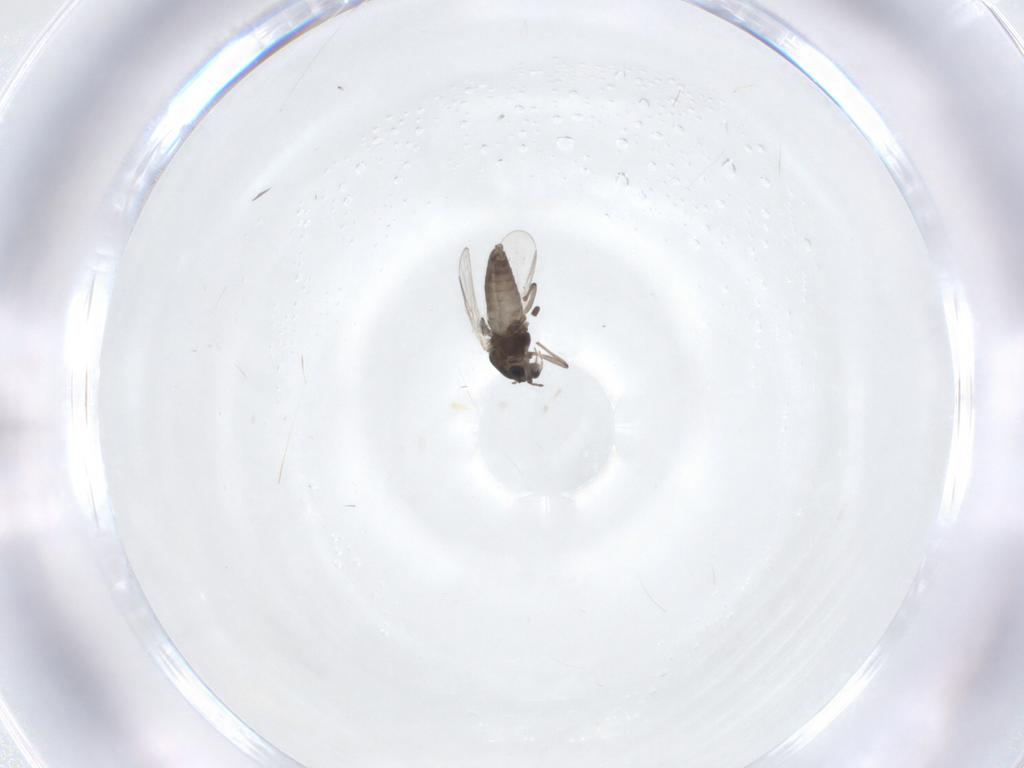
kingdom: Animalia
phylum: Arthropoda
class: Insecta
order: Diptera
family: Chironomidae
